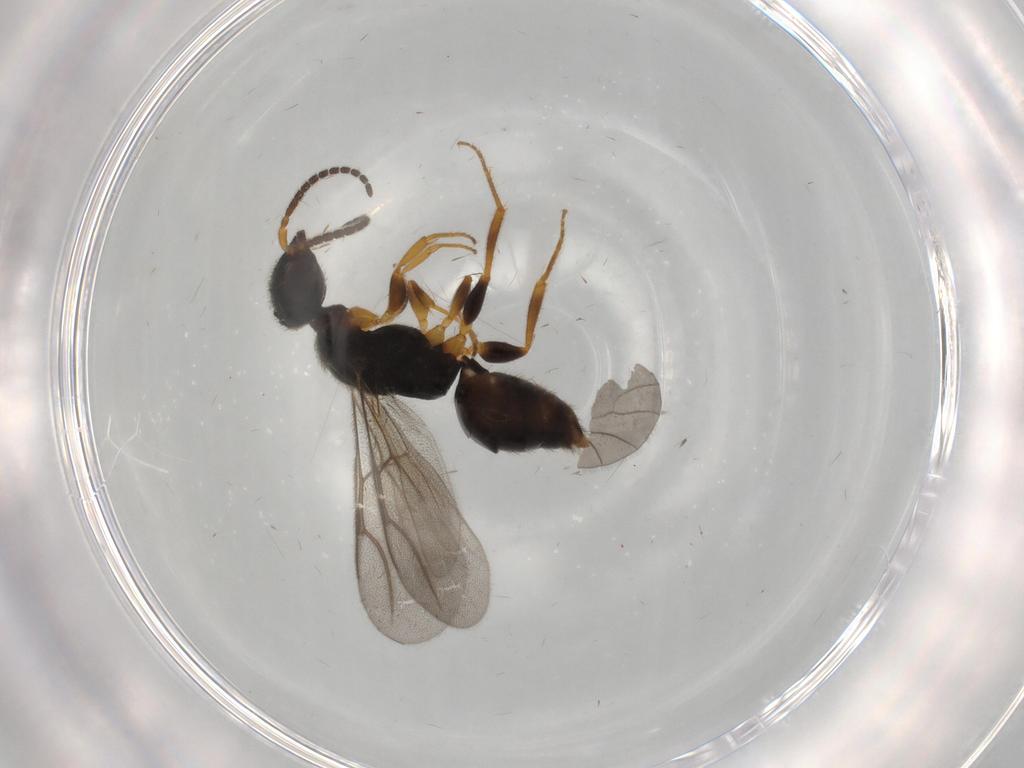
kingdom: Animalia
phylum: Arthropoda
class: Insecta
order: Hymenoptera
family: Bethylidae
